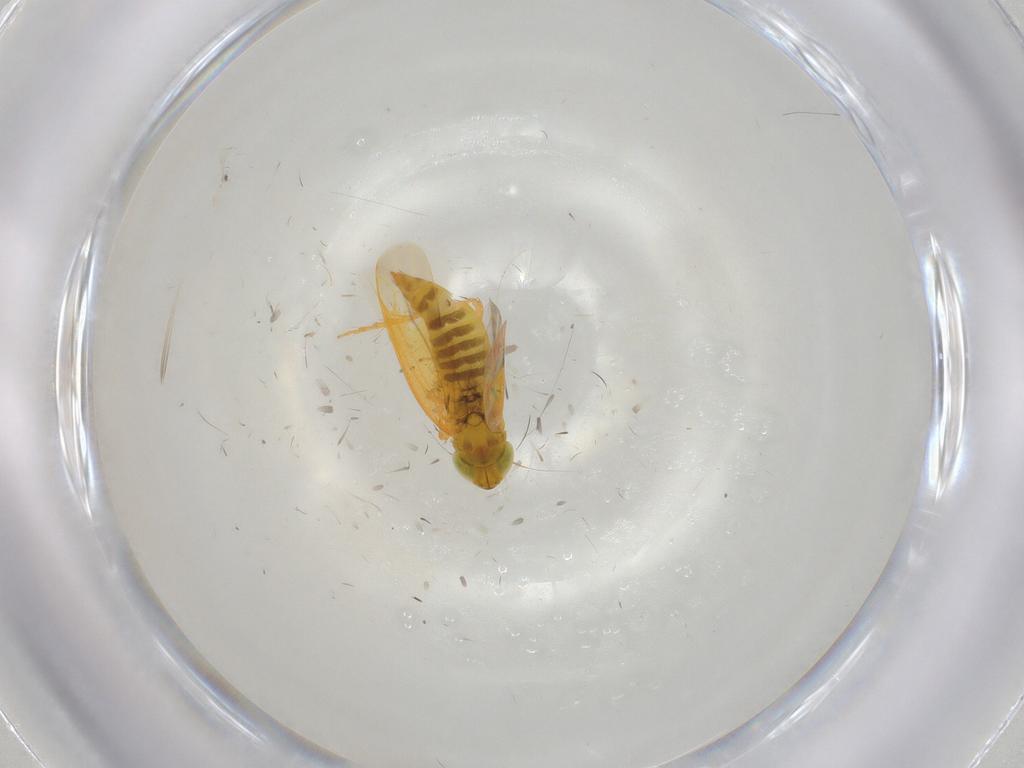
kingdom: Animalia
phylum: Arthropoda
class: Insecta
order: Hemiptera
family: Cicadellidae
